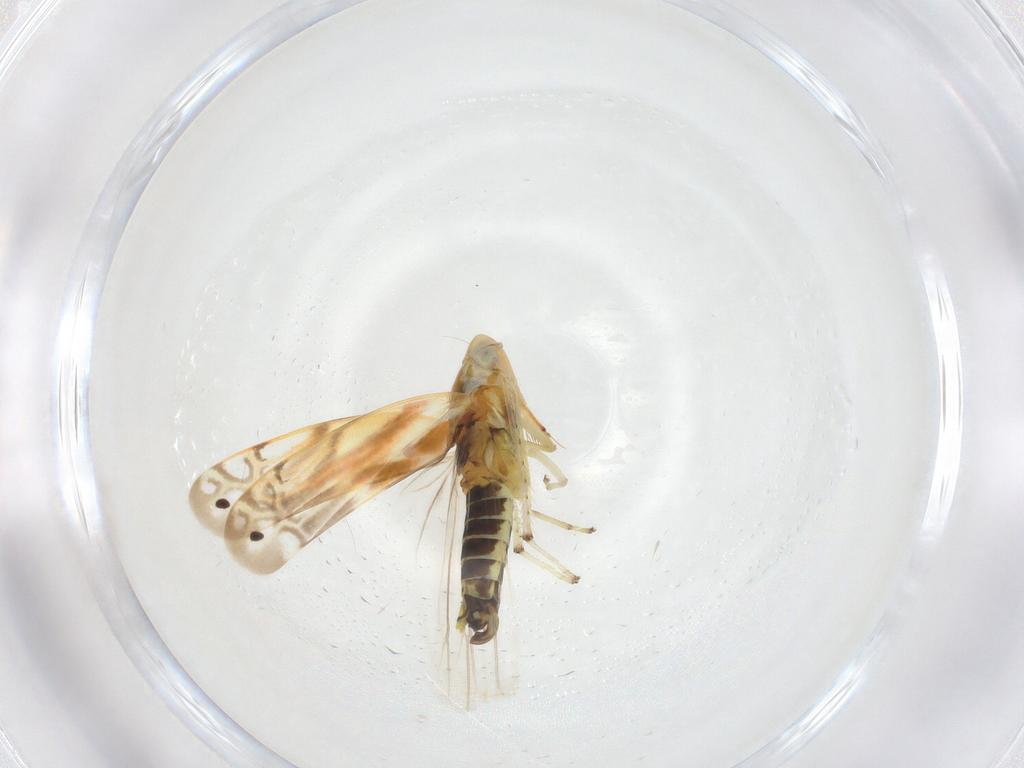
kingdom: Animalia
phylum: Arthropoda
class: Insecta
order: Hemiptera
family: Cicadellidae
